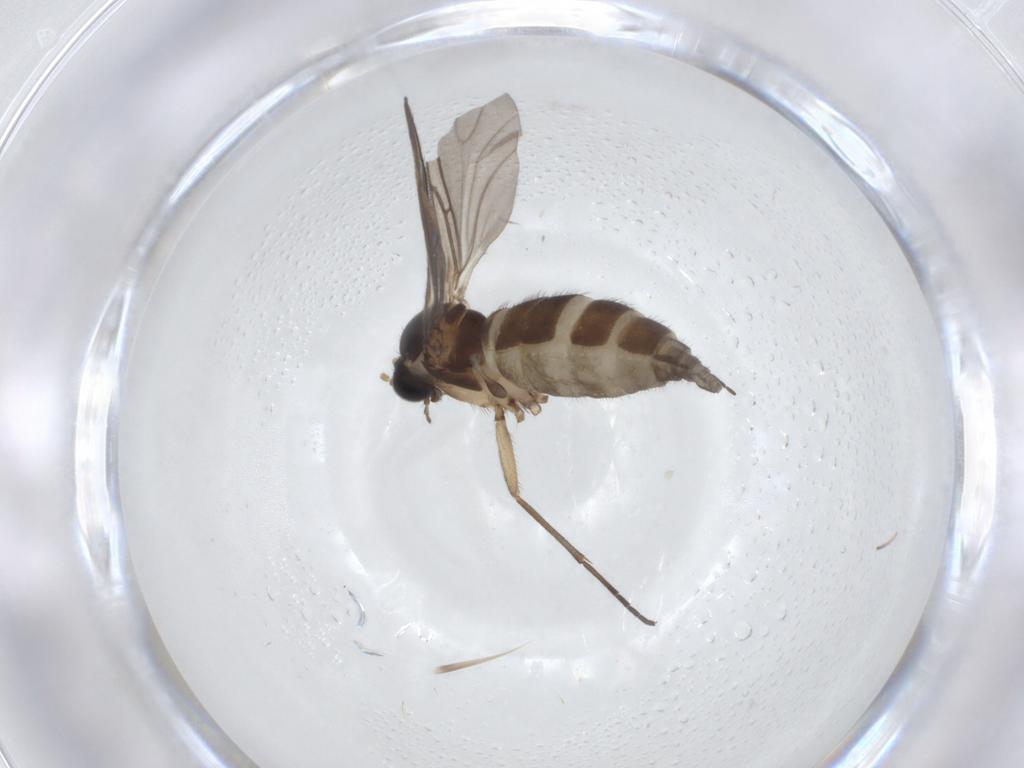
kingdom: Animalia
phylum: Arthropoda
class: Insecta
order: Diptera
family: Sciaridae
